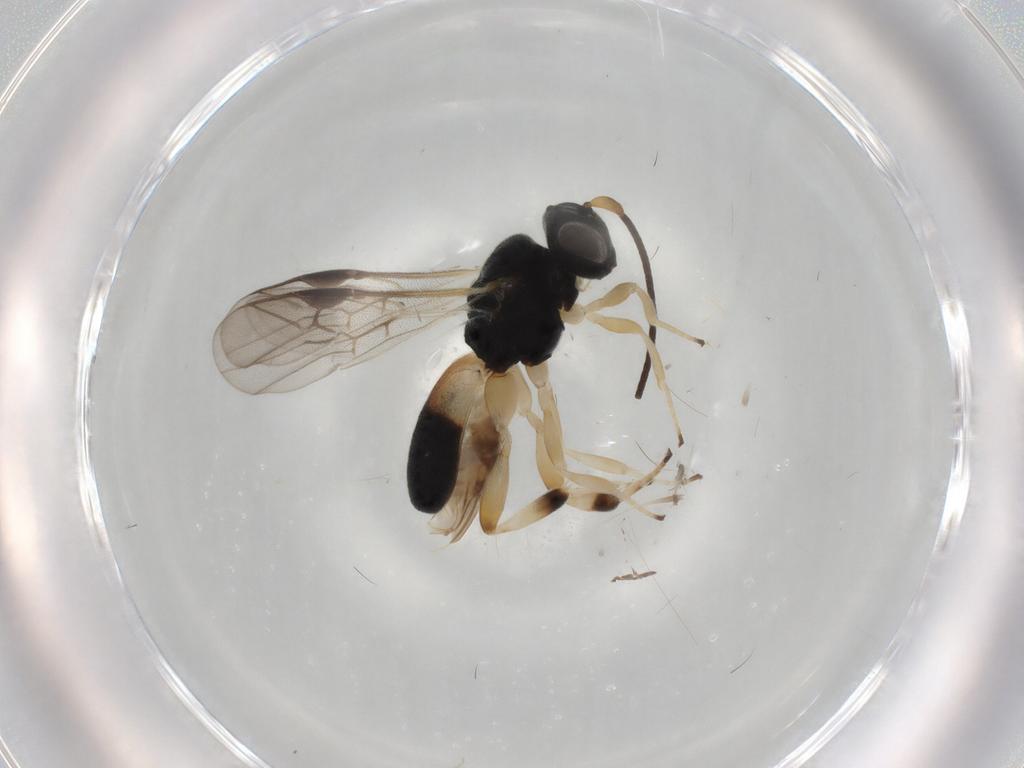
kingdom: Animalia
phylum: Arthropoda
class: Insecta
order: Hymenoptera
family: Braconidae
